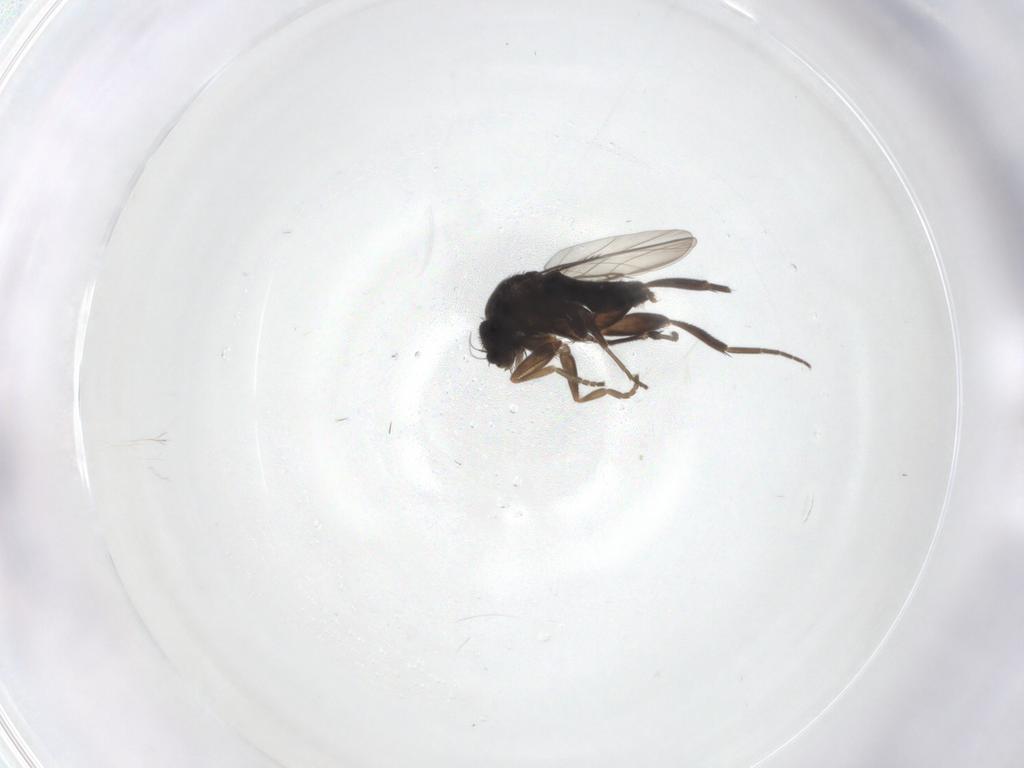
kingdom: Animalia
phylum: Arthropoda
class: Insecta
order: Diptera
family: Phoridae
